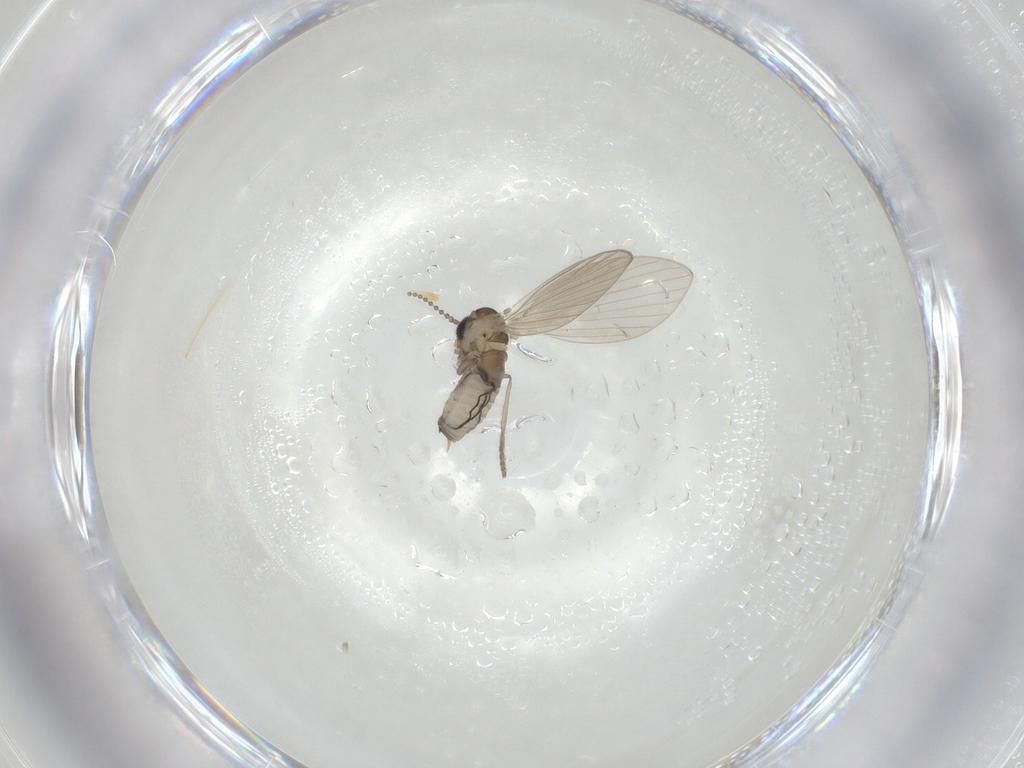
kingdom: Animalia
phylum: Arthropoda
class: Insecta
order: Diptera
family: Psychodidae
